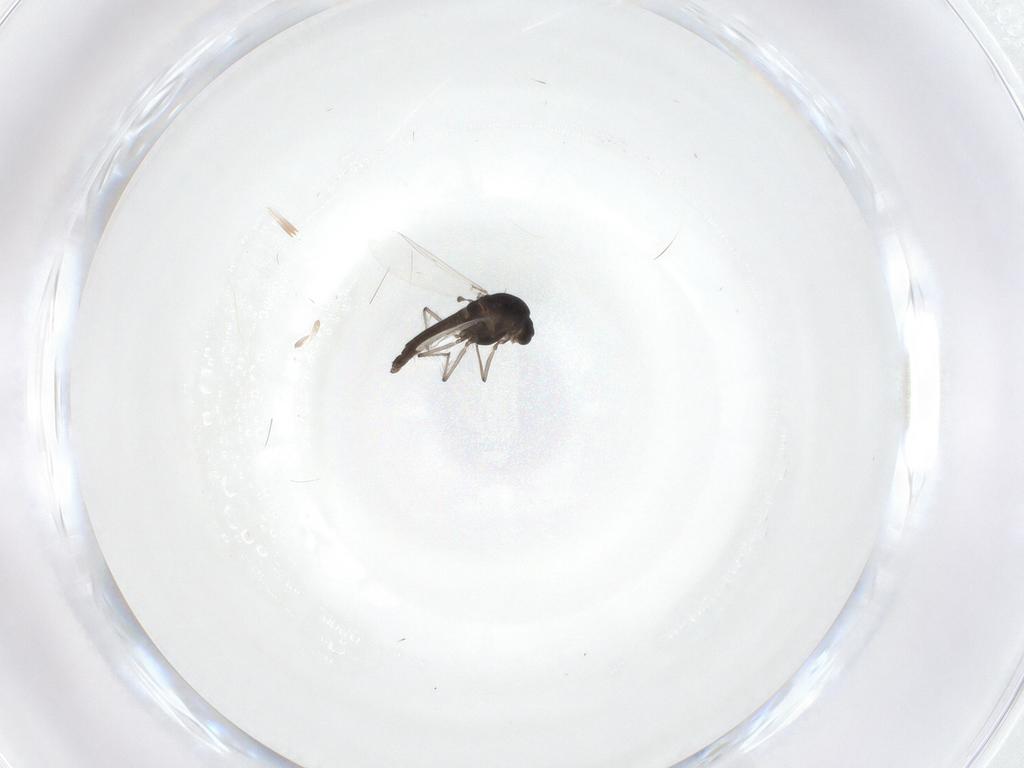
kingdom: Animalia
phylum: Arthropoda
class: Insecta
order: Diptera
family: Chironomidae
